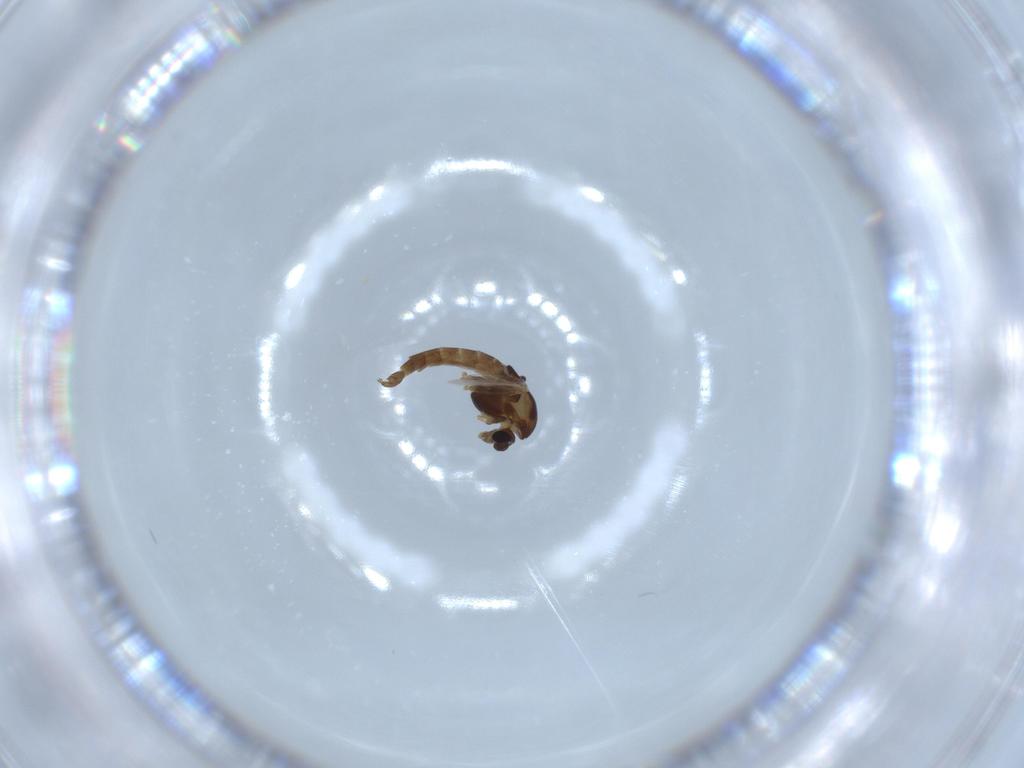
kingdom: Animalia
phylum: Arthropoda
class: Insecta
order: Diptera
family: Chironomidae
